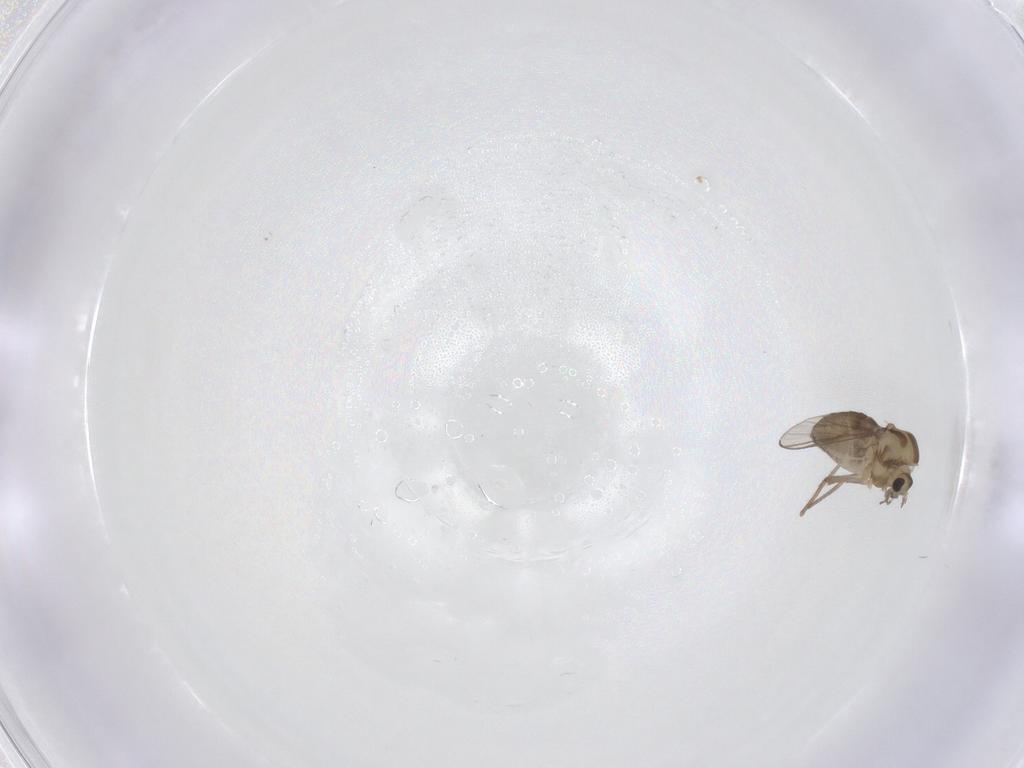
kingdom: Animalia
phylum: Arthropoda
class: Insecta
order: Diptera
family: Chironomidae
